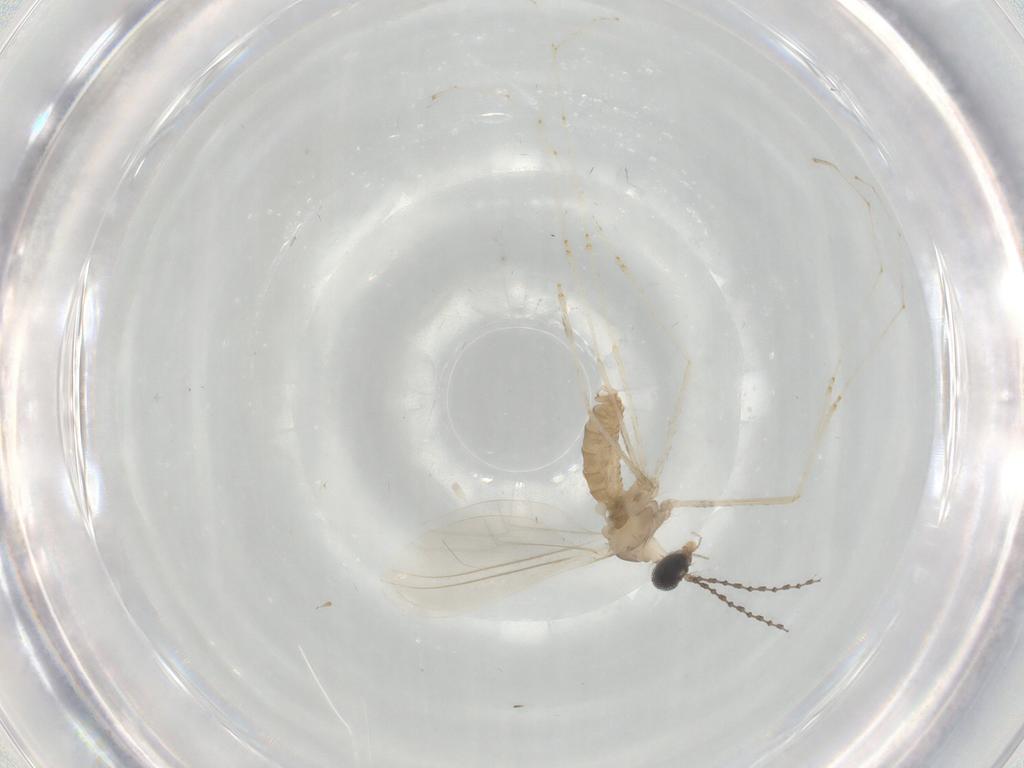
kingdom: Animalia
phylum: Arthropoda
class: Insecta
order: Diptera
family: Cecidomyiidae
